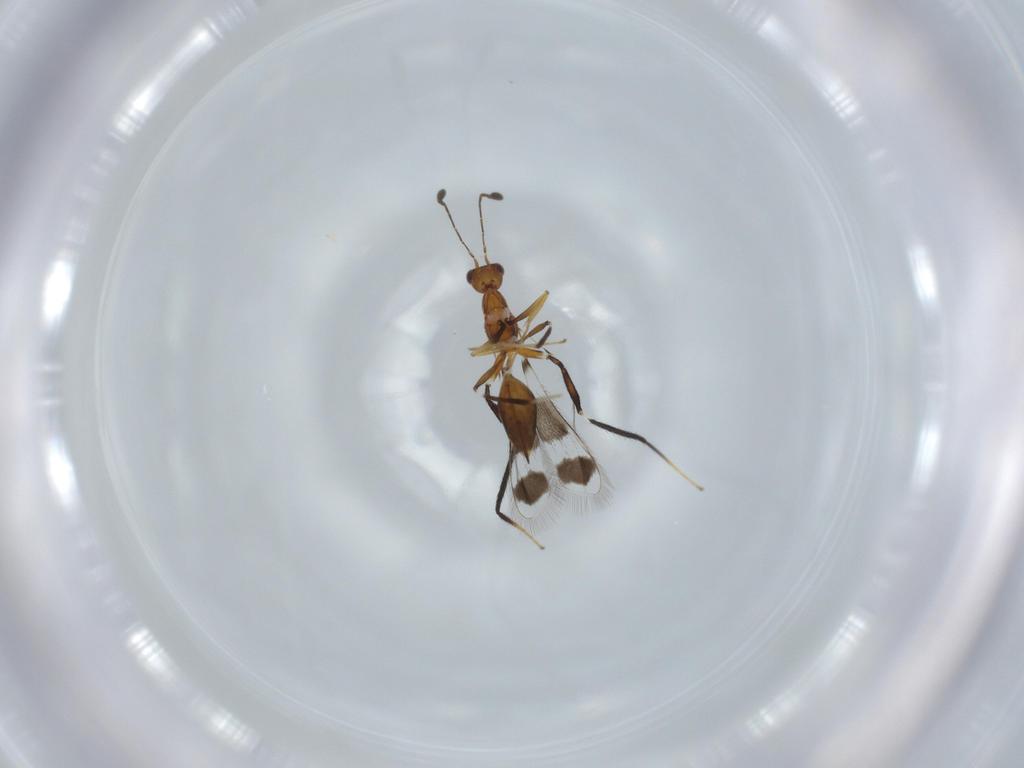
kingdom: Animalia
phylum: Arthropoda
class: Insecta
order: Hymenoptera
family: Mymaridae
